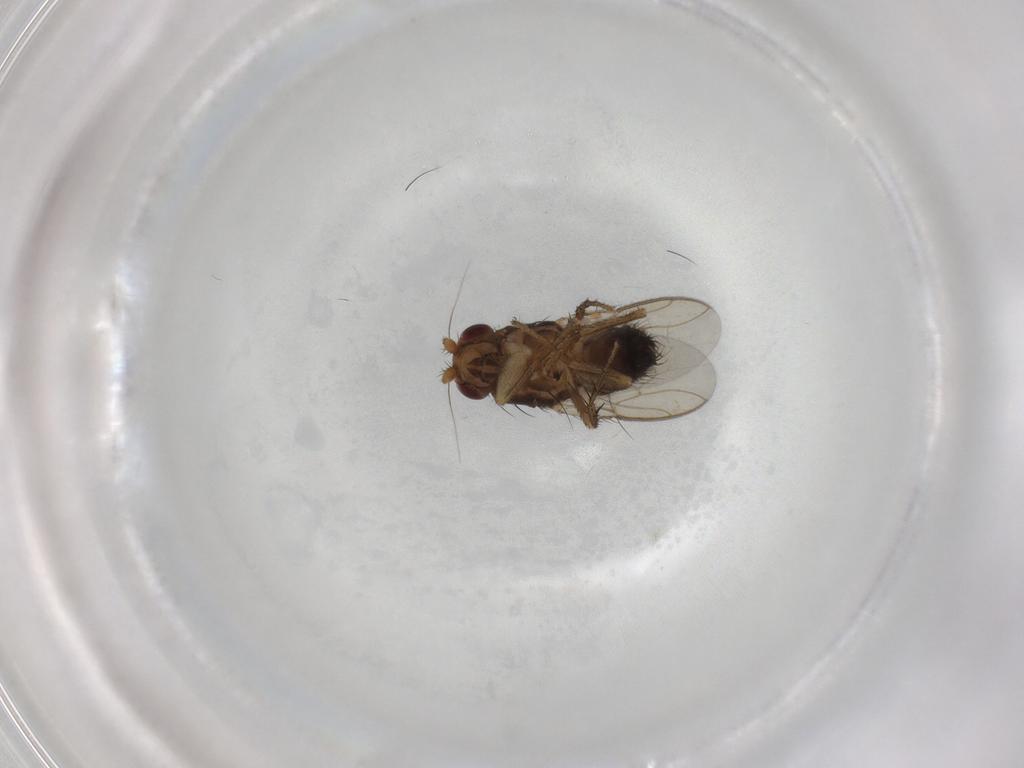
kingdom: Animalia
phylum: Arthropoda
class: Insecta
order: Diptera
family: Sphaeroceridae
